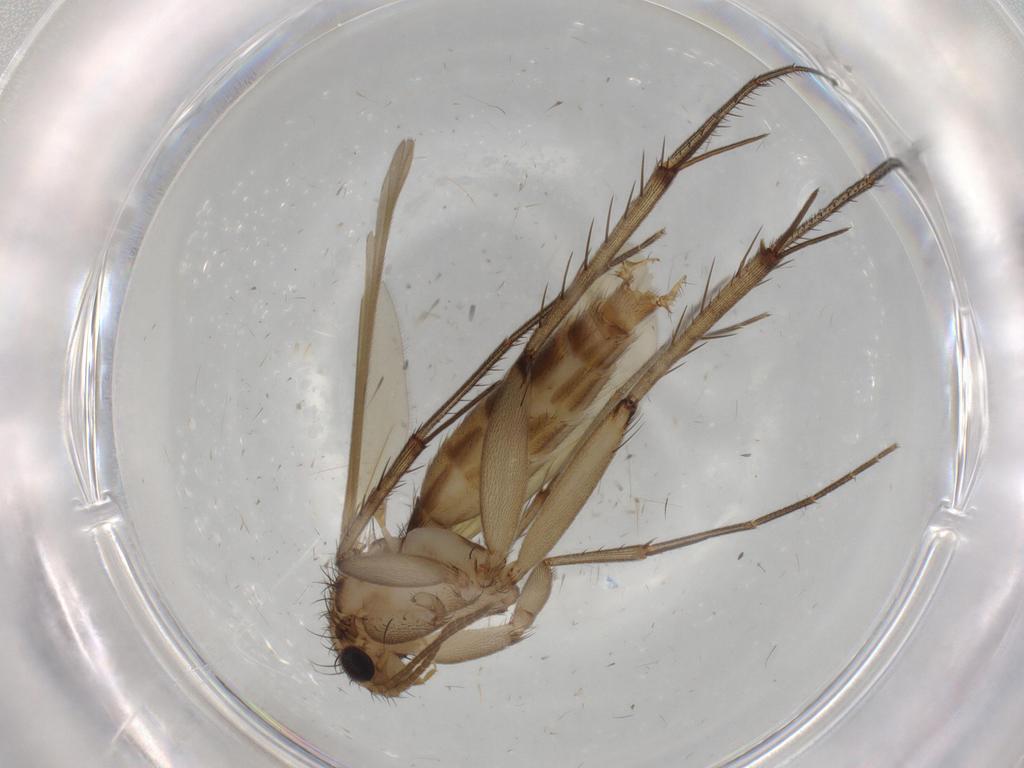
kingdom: Animalia
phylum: Arthropoda
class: Insecta
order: Diptera
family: Mycetophilidae
